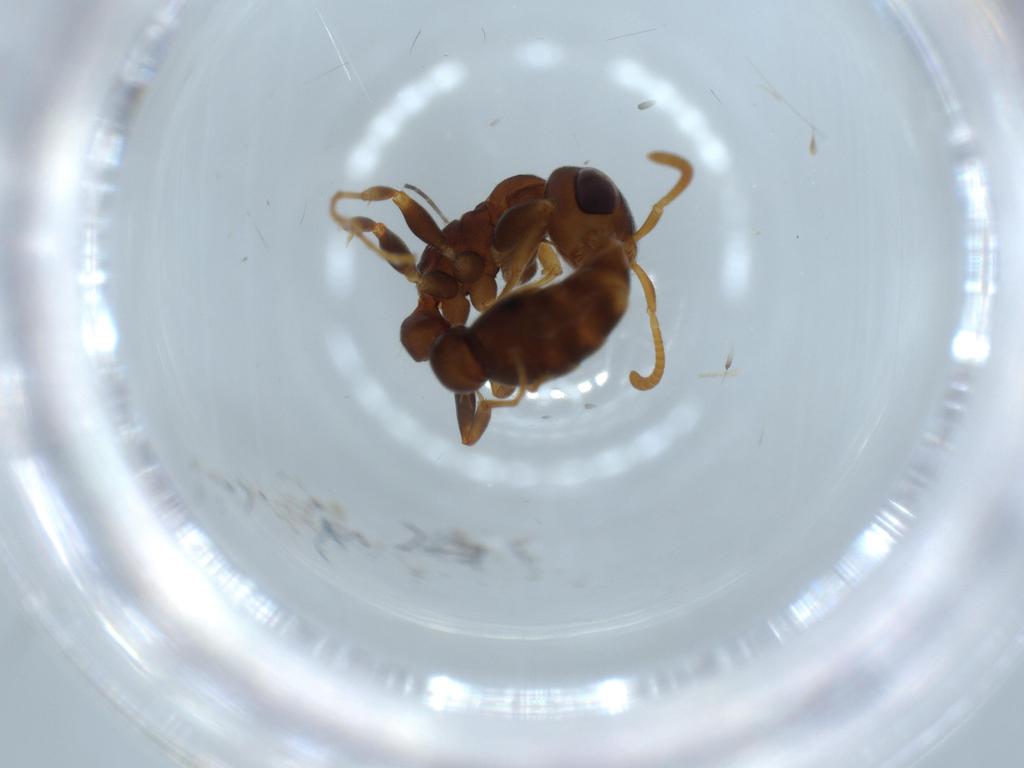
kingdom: Animalia
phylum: Arthropoda
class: Insecta
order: Hymenoptera
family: Formicidae
